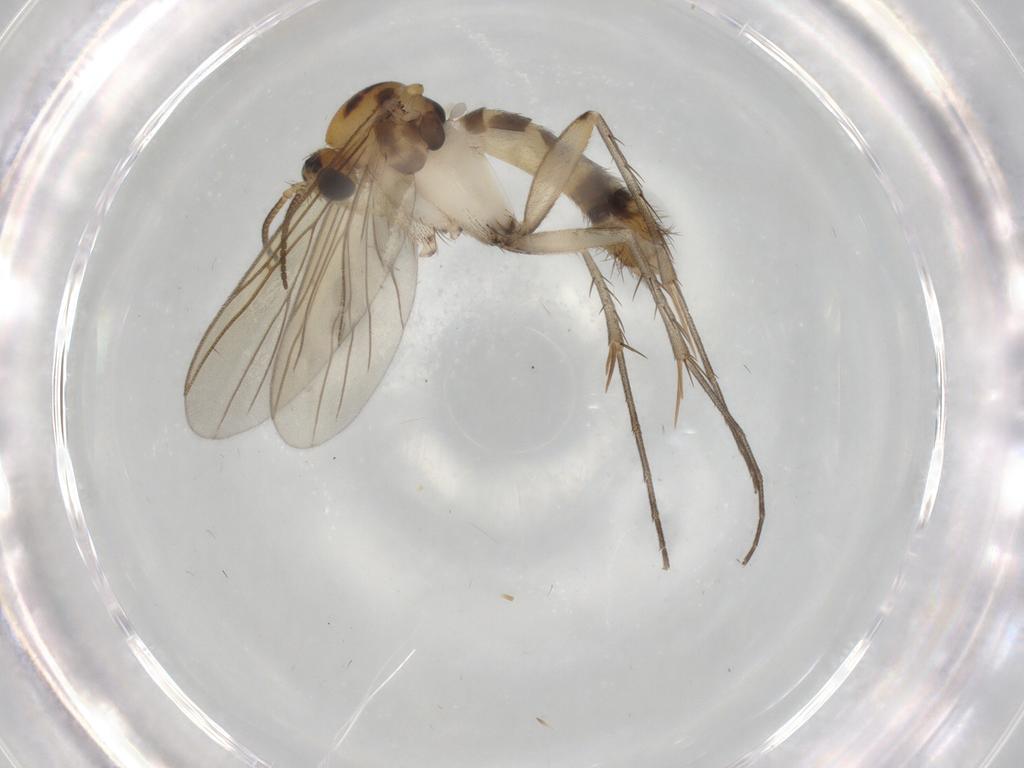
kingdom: Animalia
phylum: Arthropoda
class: Insecta
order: Diptera
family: Mycetophilidae
